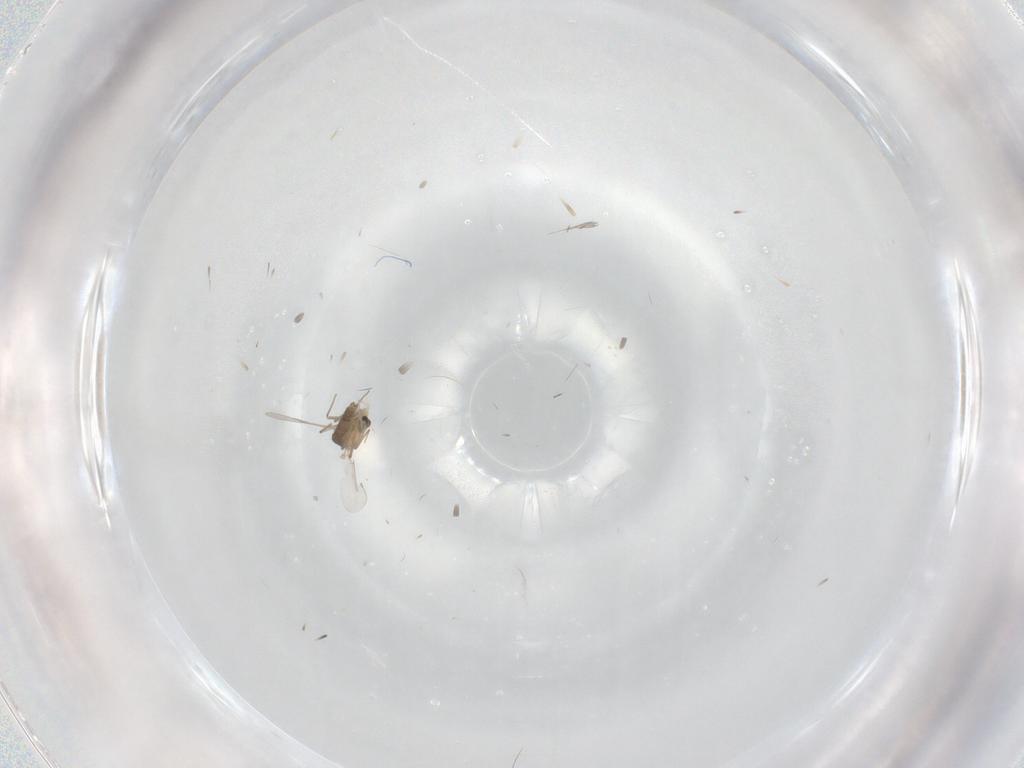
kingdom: Animalia
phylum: Arthropoda
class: Insecta
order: Diptera
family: Chironomidae
